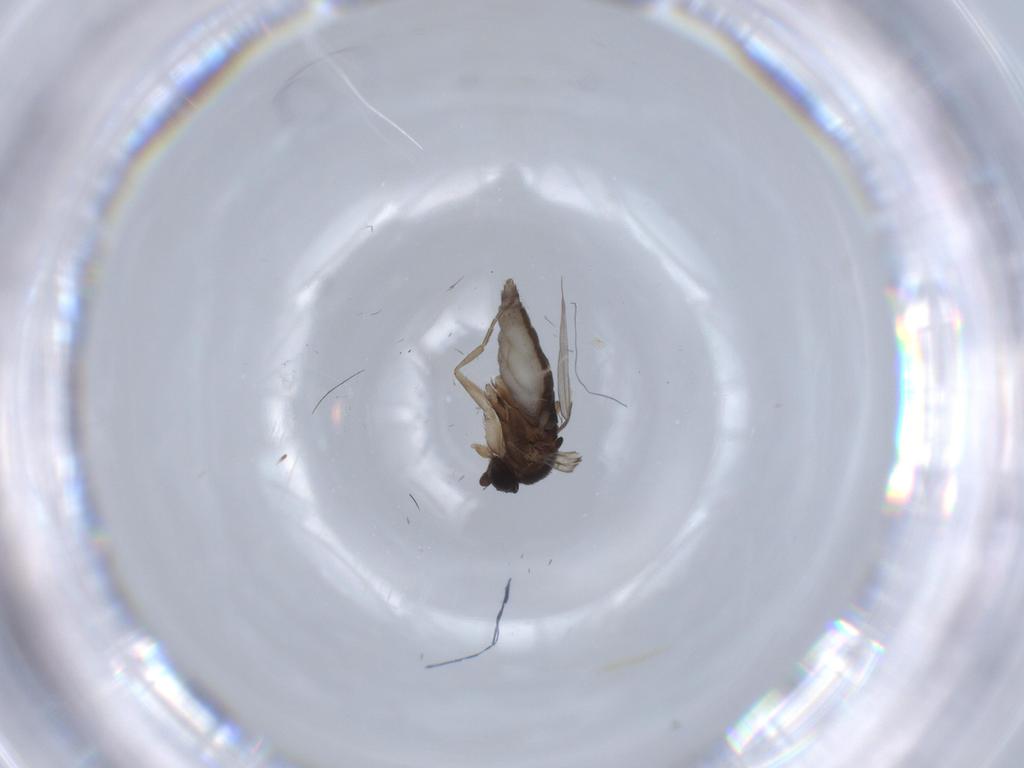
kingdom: Animalia
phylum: Arthropoda
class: Insecta
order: Diptera
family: Phoridae
